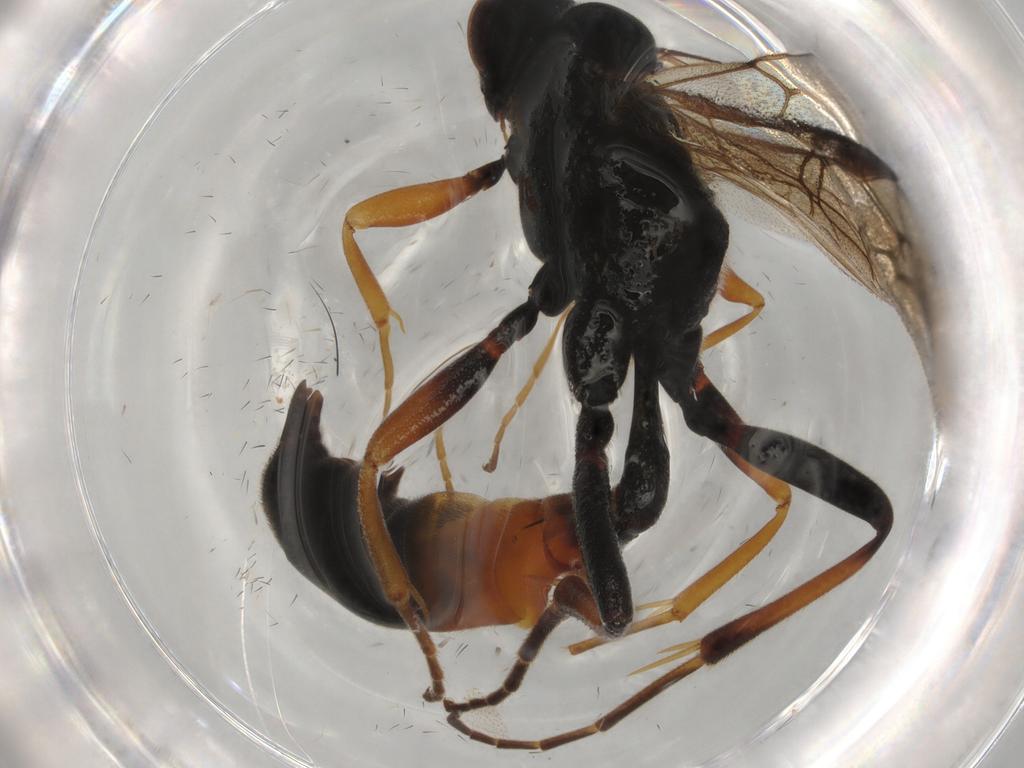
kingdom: Animalia
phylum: Arthropoda
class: Insecta
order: Hymenoptera
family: Ichneumonidae
